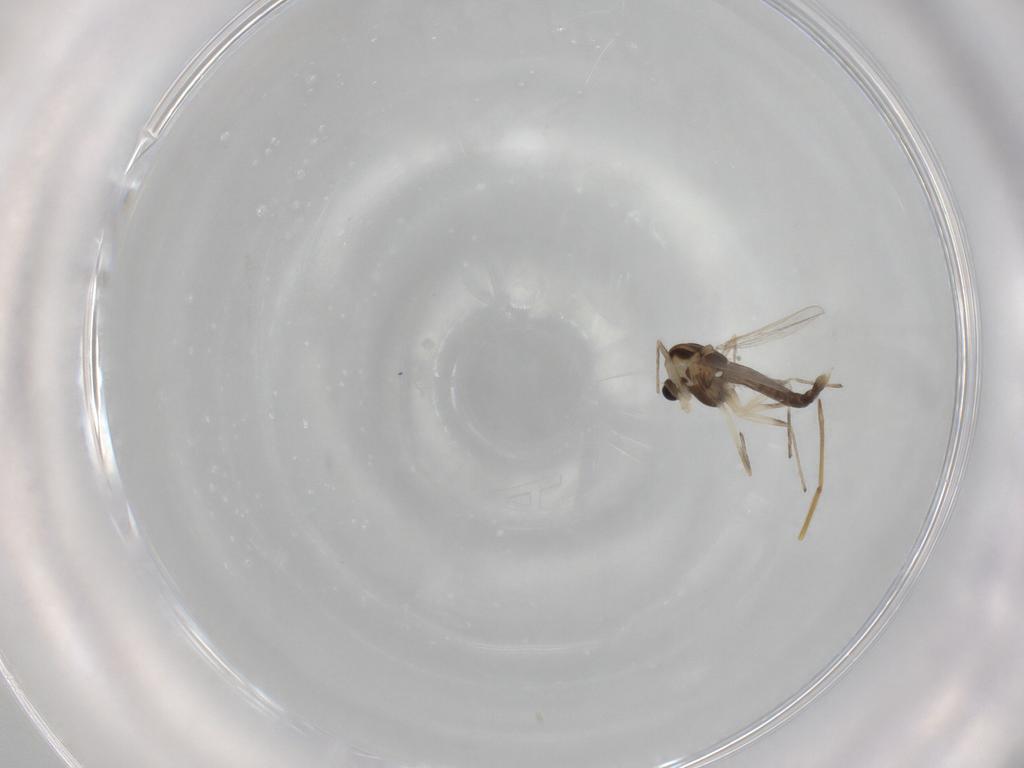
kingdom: Animalia
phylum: Arthropoda
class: Insecta
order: Diptera
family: Chironomidae
